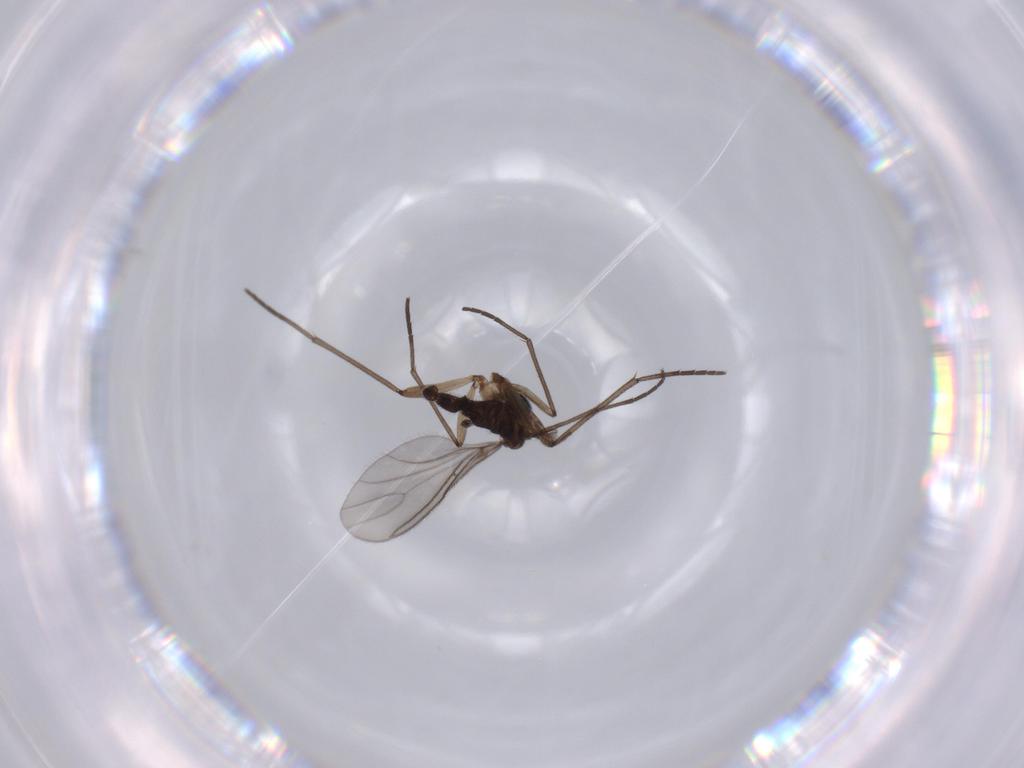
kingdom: Animalia
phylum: Arthropoda
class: Insecta
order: Diptera
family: Sciaridae
